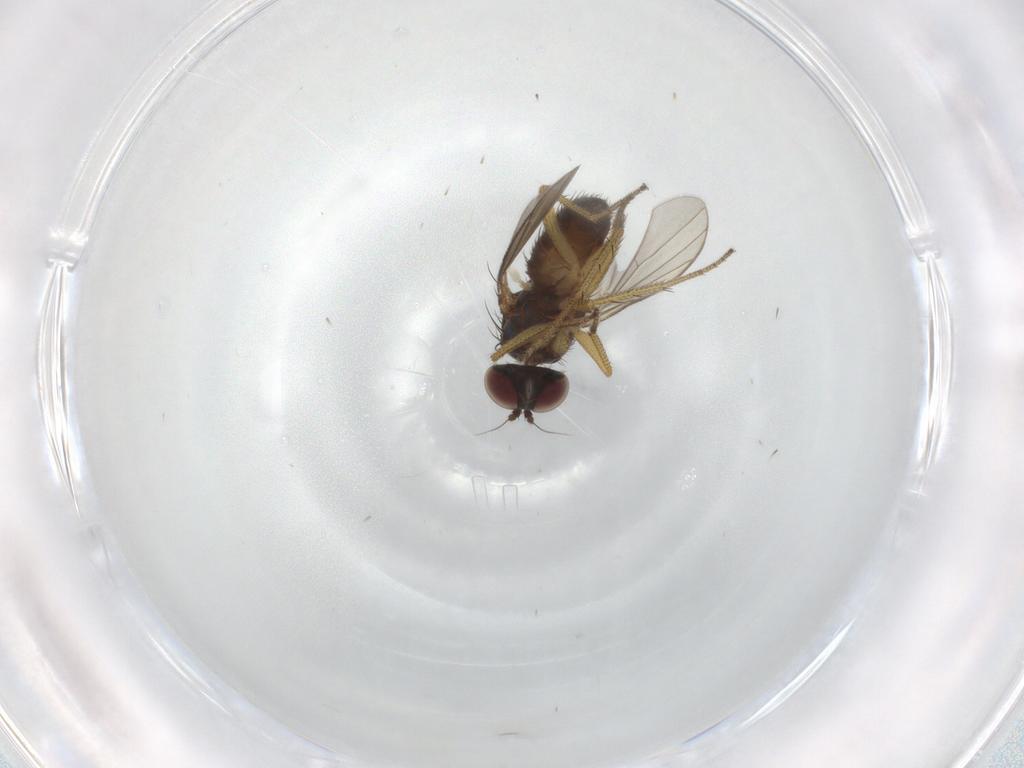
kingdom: Animalia
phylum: Arthropoda
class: Insecta
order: Diptera
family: Dolichopodidae
